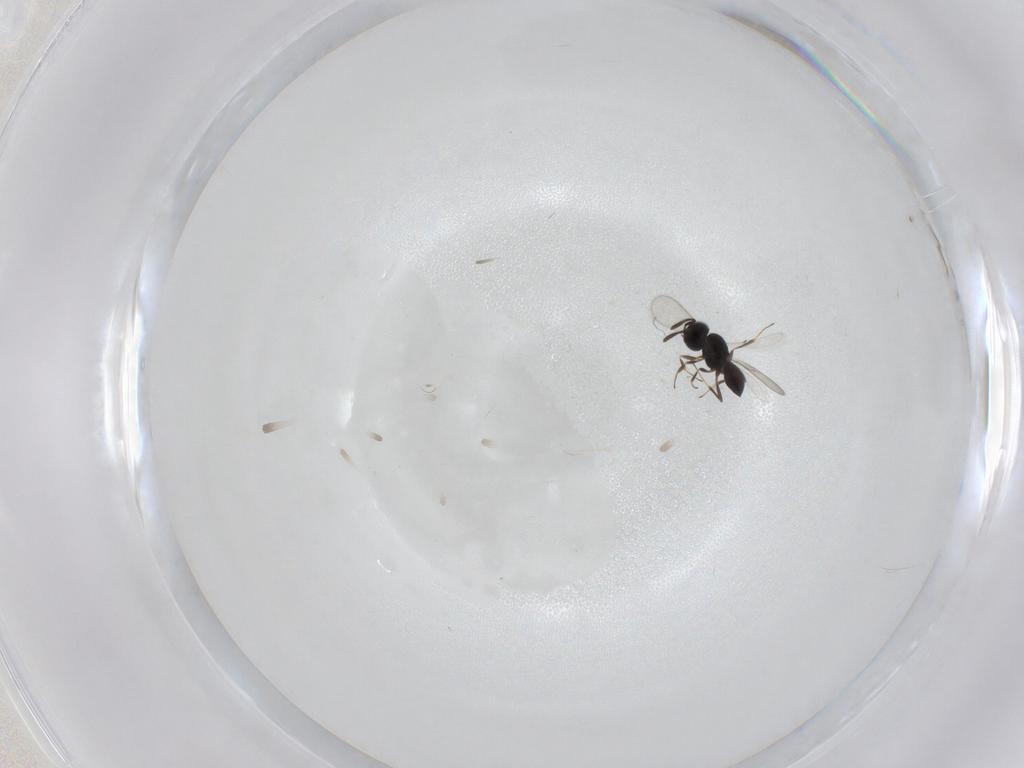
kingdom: Animalia
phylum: Arthropoda
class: Insecta
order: Hymenoptera
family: Scelionidae
